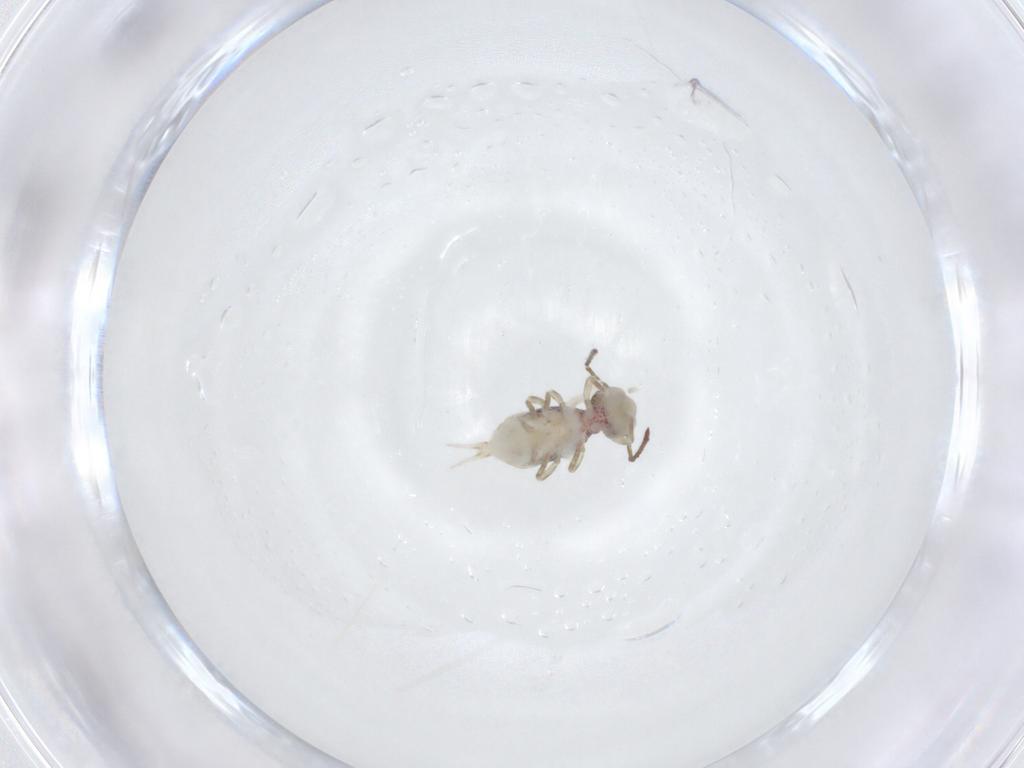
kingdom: Animalia
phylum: Arthropoda
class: Collembola
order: Symphypleona
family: Dicyrtomidae
